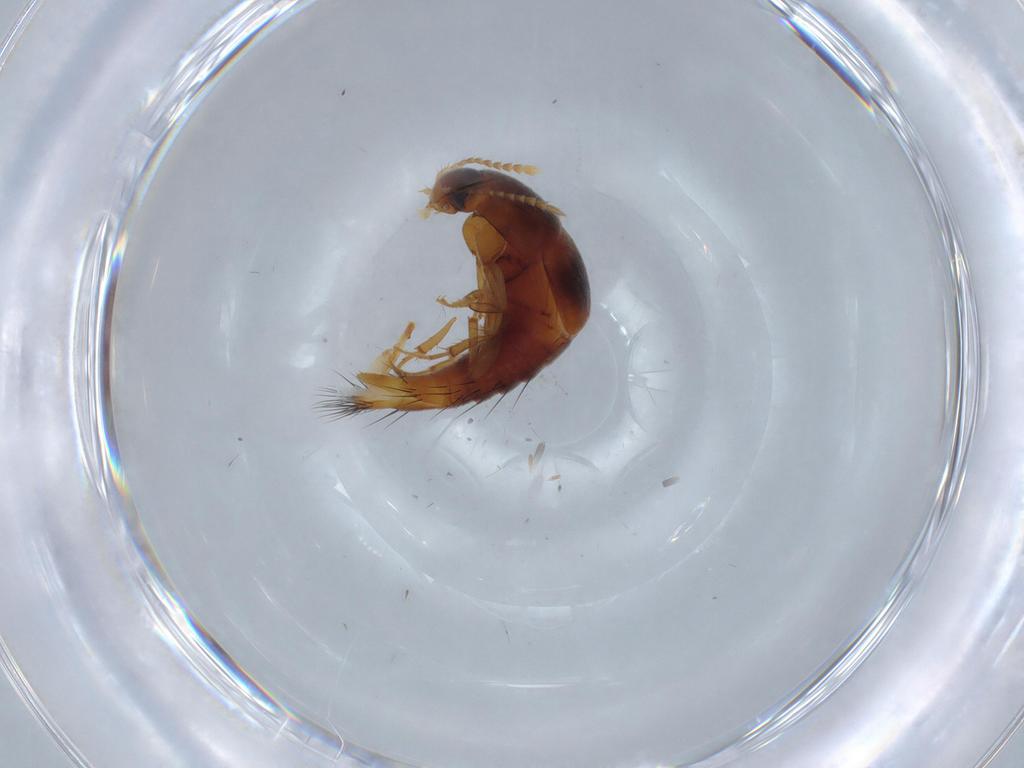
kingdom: Animalia
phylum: Arthropoda
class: Insecta
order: Coleoptera
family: Staphylinidae
